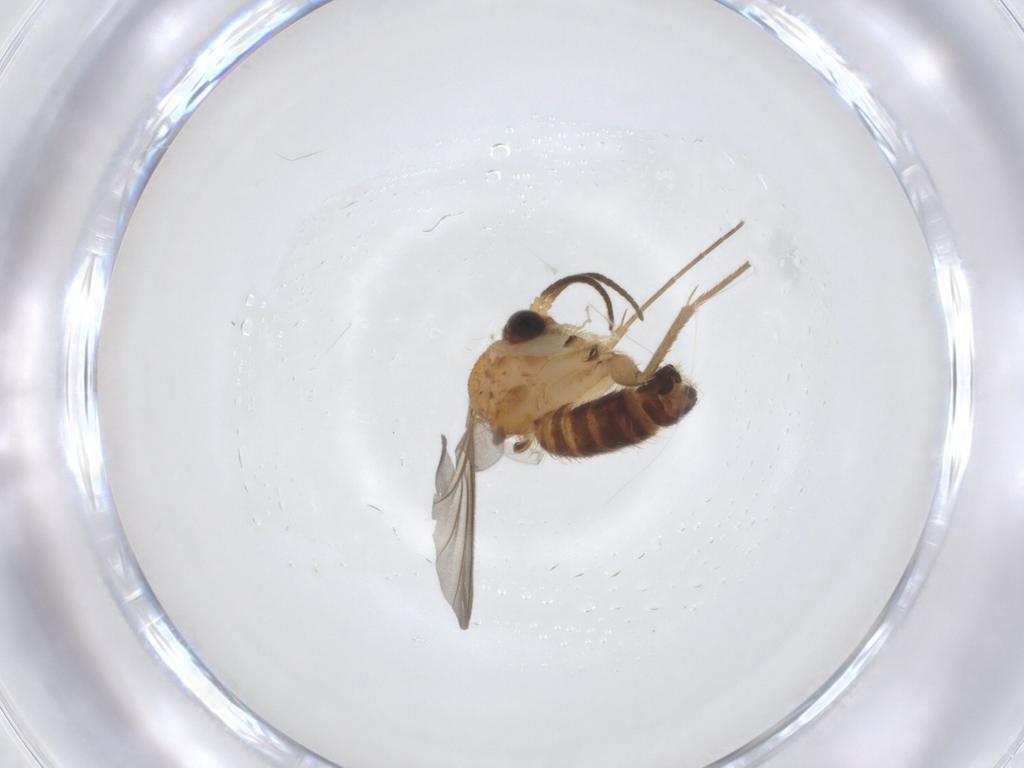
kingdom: Animalia
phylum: Arthropoda
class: Insecta
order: Diptera
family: Mycetophilidae
